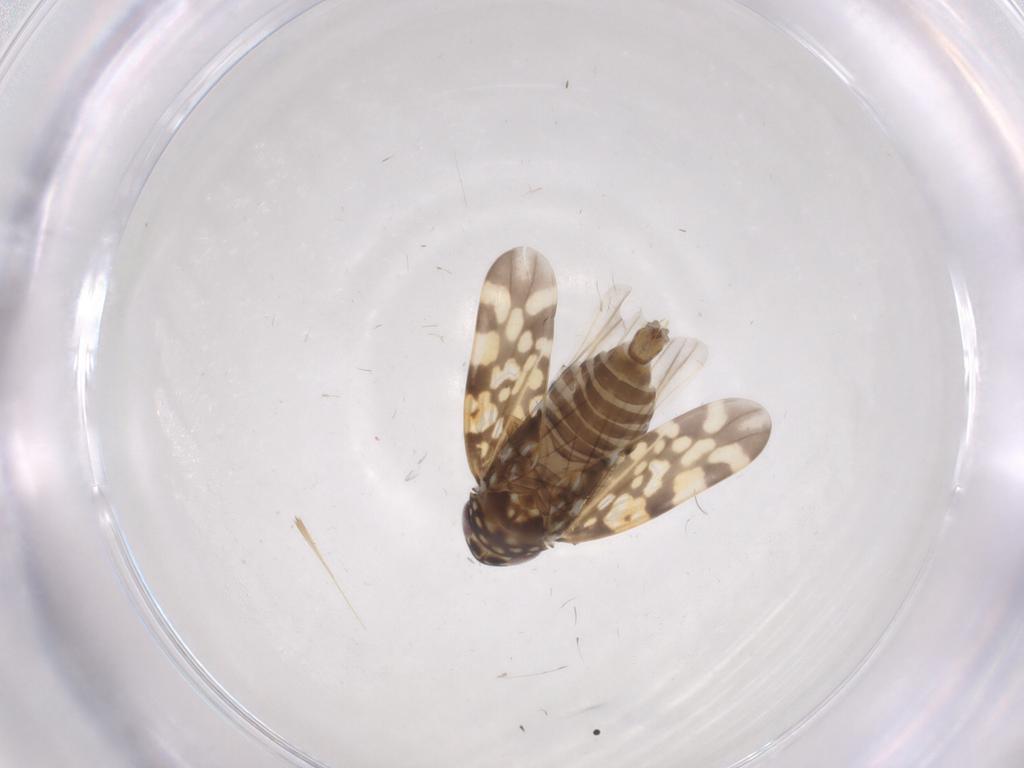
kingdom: Animalia
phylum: Arthropoda
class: Insecta
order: Hemiptera
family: Cicadellidae
